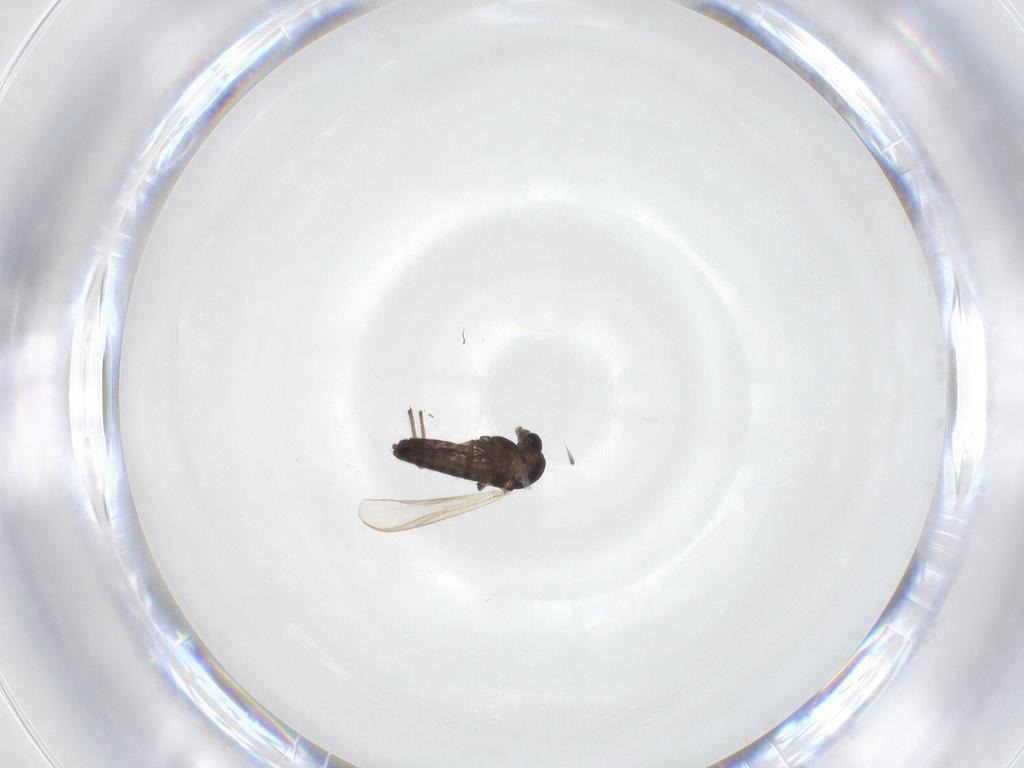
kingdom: Animalia
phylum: Arthropoda
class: Insecta
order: Diptera
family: Chironomidae
